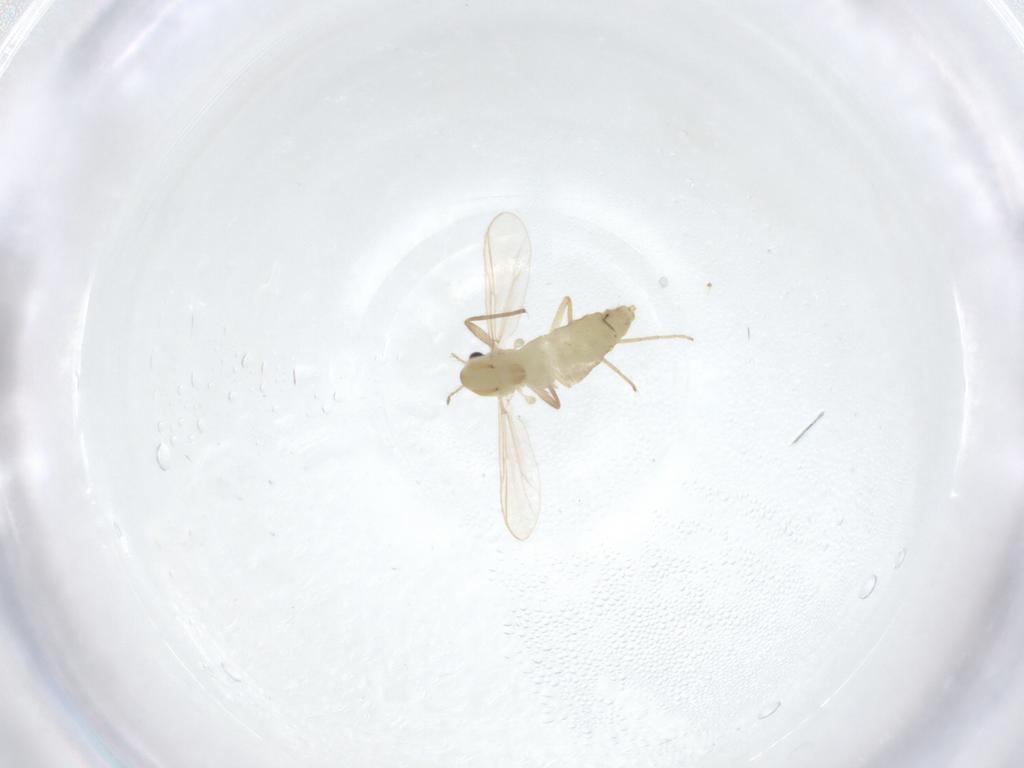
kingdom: Animalia
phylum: Arthropoda
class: Insecta
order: Diptera
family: Chironomidae
